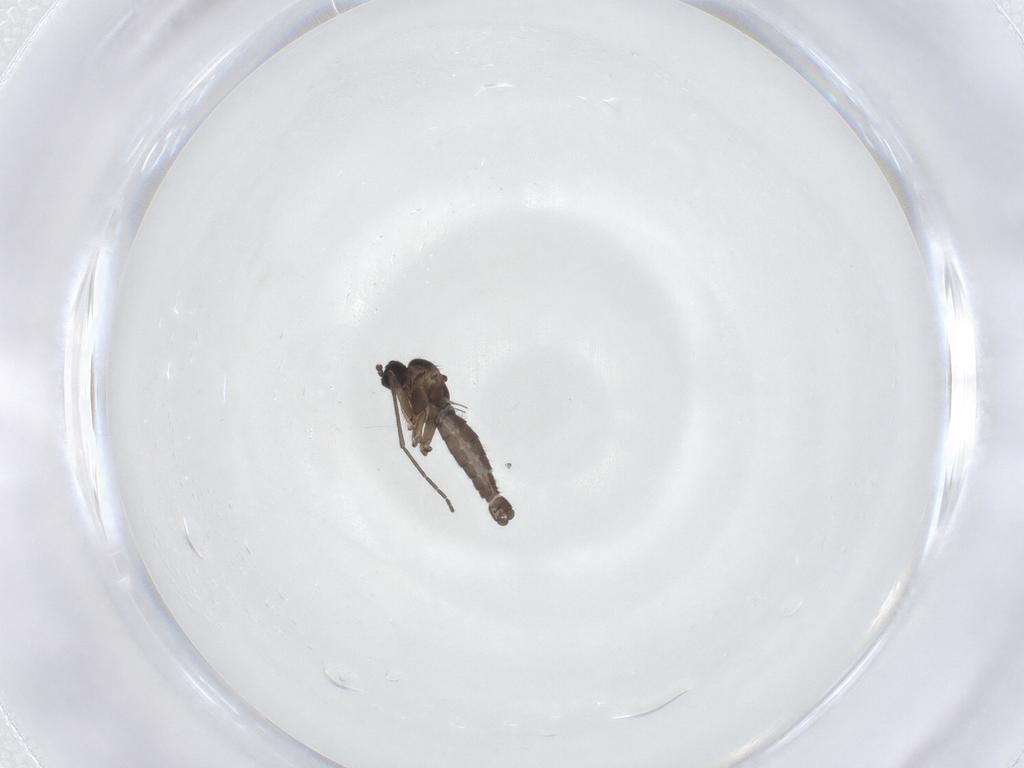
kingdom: Animalia
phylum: Arthropoda
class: Insecta
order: Diptera
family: Sciaridae
